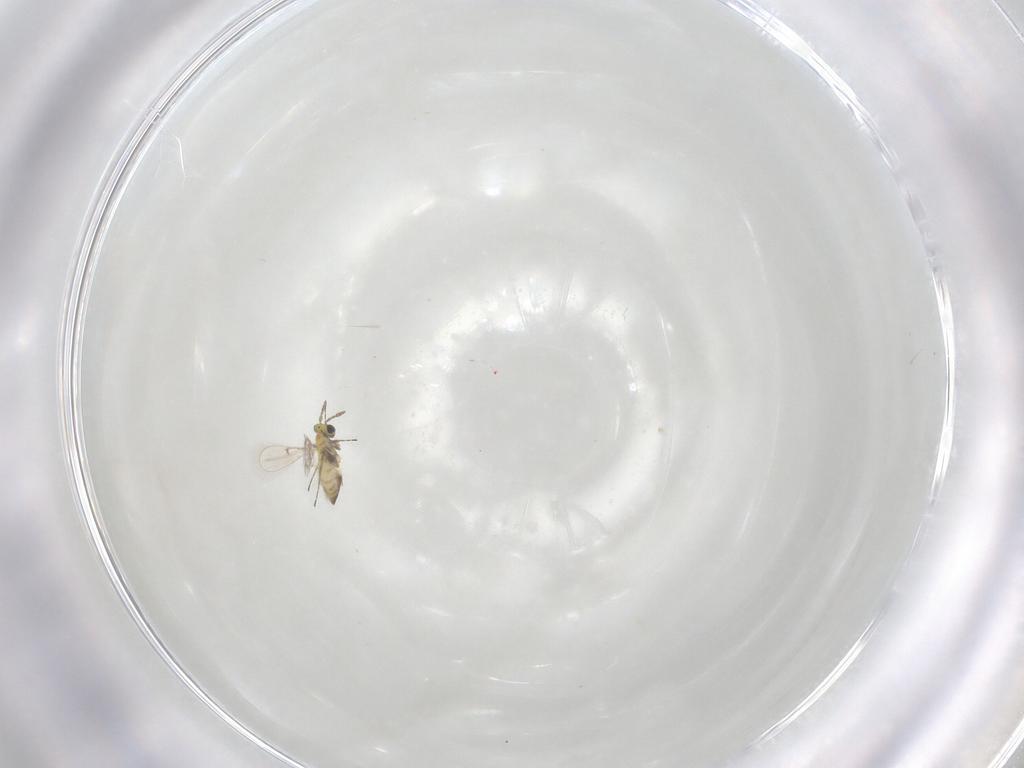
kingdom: Animalia
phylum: Arthropoda
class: Insecta
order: Hymenoptera
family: Trichogrammatidae
